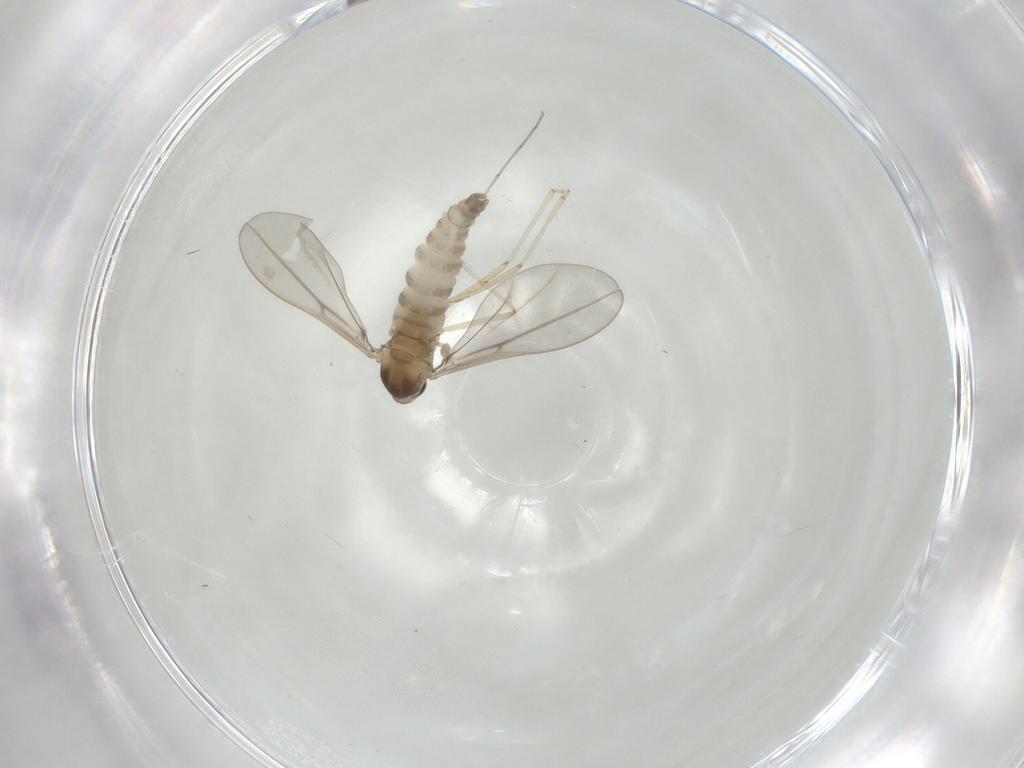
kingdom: Animalia
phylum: Arthropoda
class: Insecta
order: Diptera
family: Cecidomyiidae
